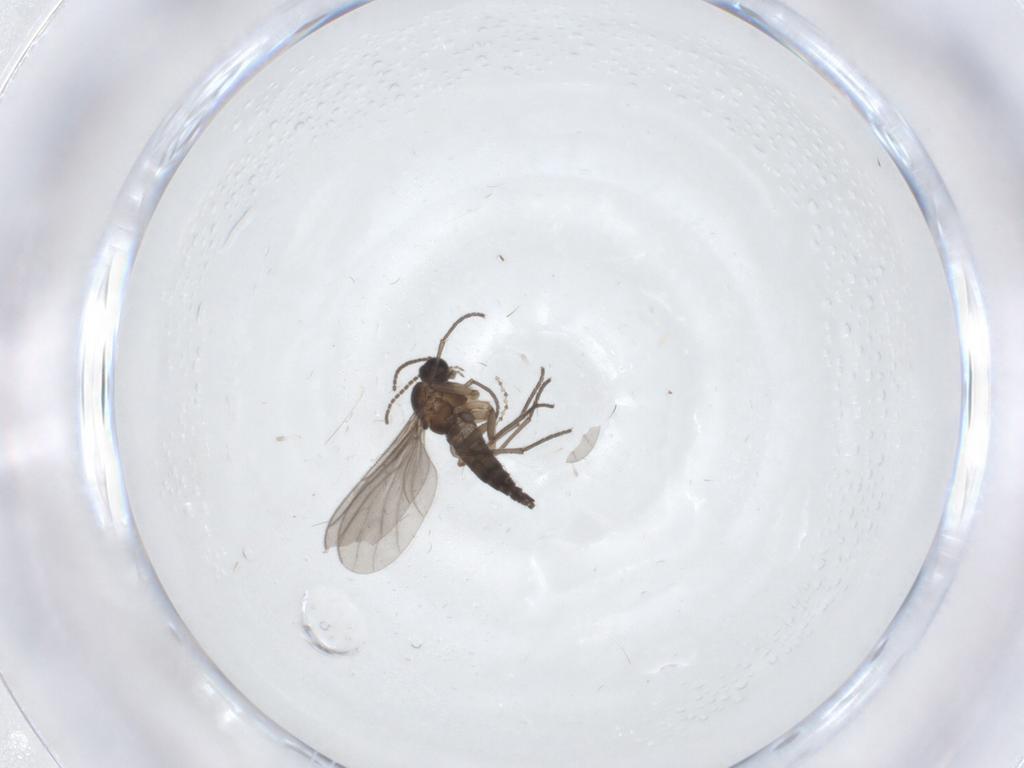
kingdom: Animalia
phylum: Arthropoda
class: Insecta
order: Diptera
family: Cecidomyiidae
